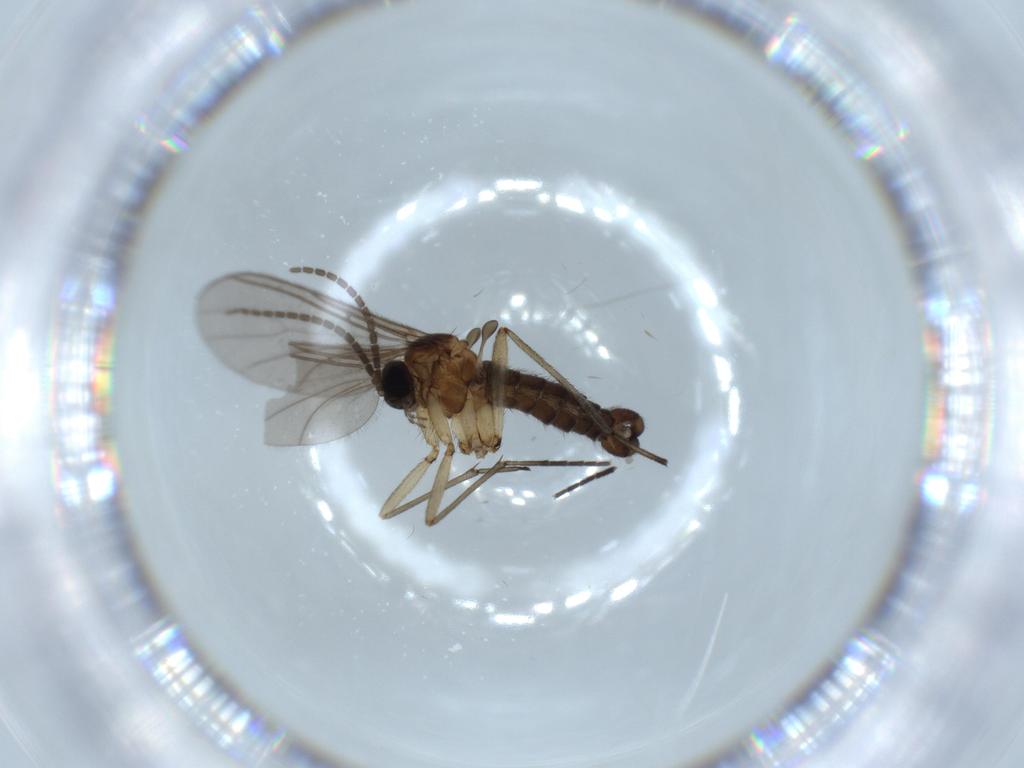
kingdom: Animalia
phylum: Arthropoda
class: Insecta
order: Diptera
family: Sciaridae
